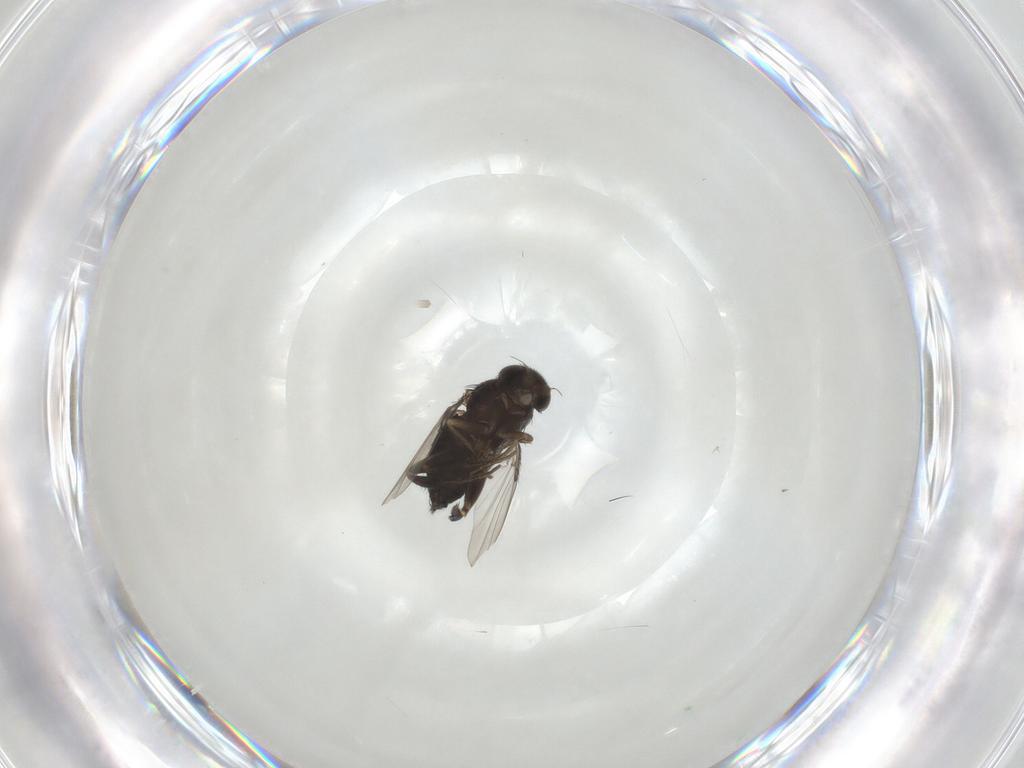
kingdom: Animalia
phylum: Arthropoda
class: Insecta
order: Diptera
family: Phoridae
